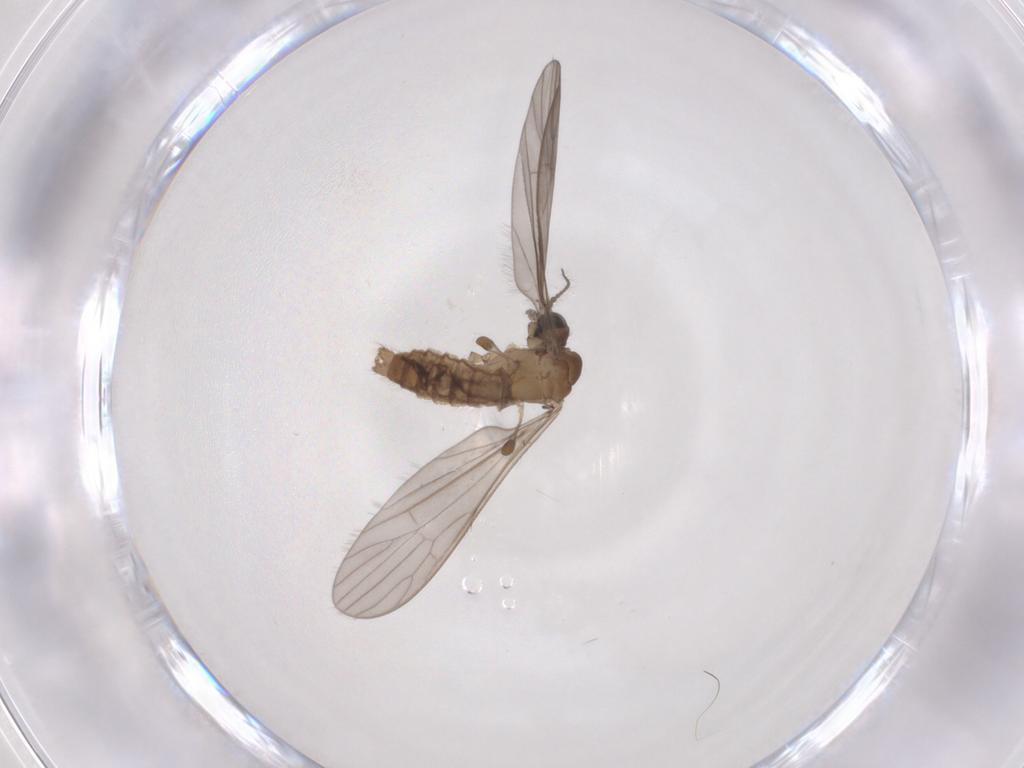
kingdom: Animalia
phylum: Arthropoda
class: Insecta
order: Diptera
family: Limoniidae
